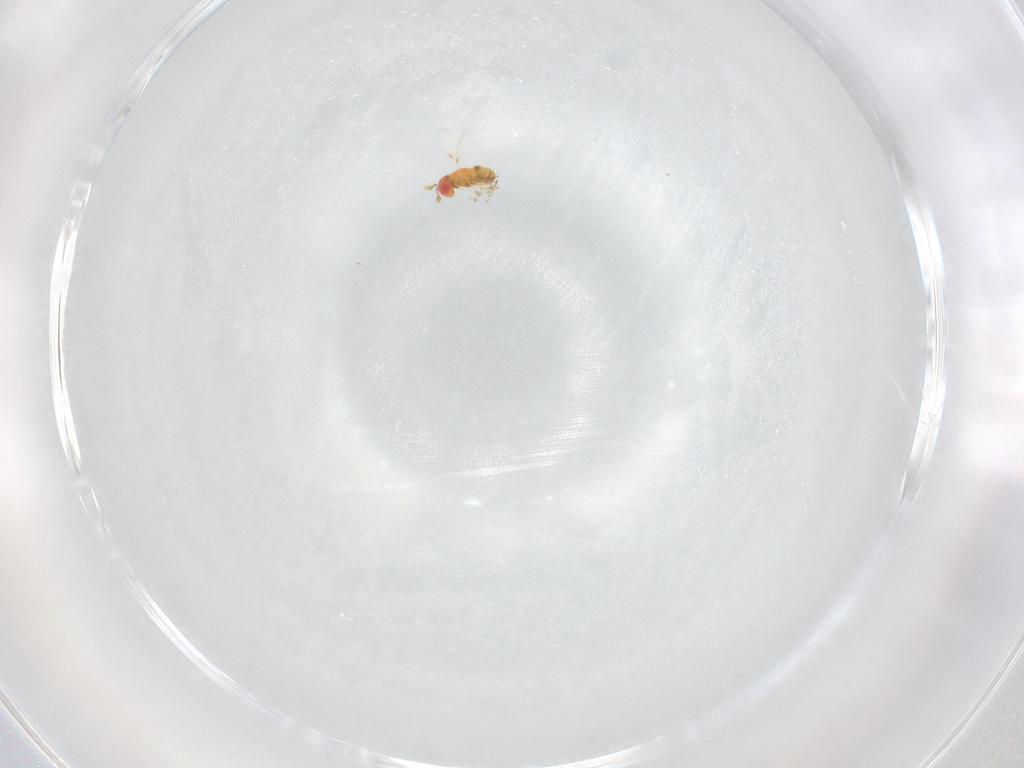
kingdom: Animalia
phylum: Arthropoda
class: Insecta
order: Hymenoptera
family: Trichogrammatidae
